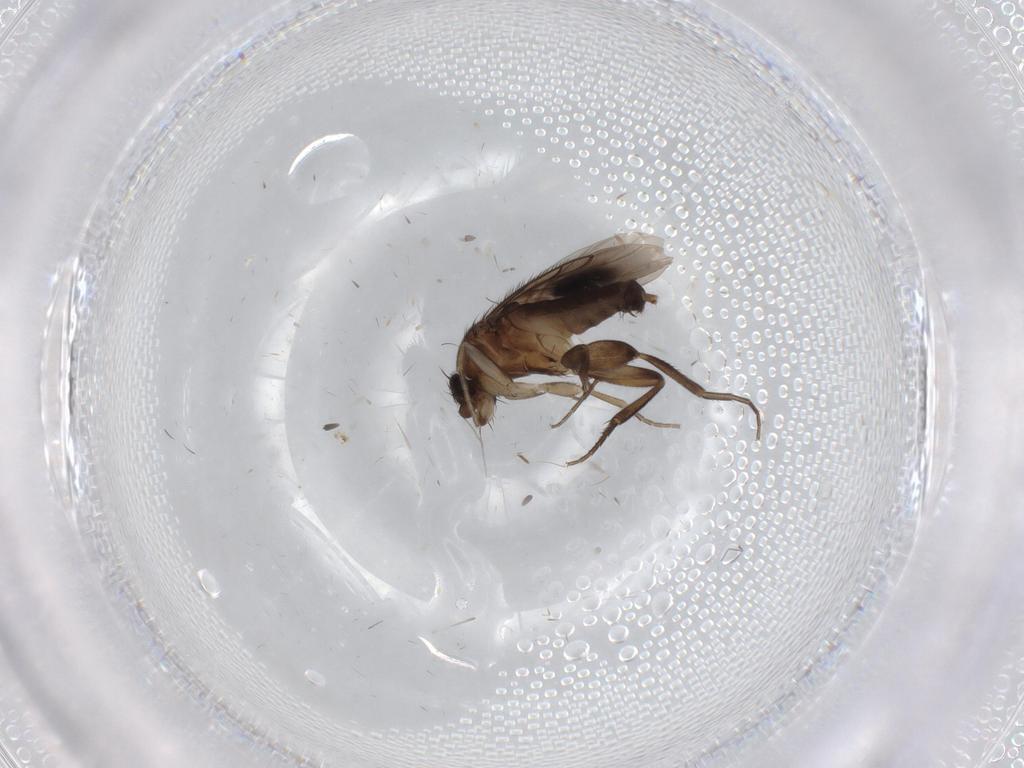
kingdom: Animalia
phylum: Arthropoda
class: Insecta
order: Diptera
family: Phoridae
